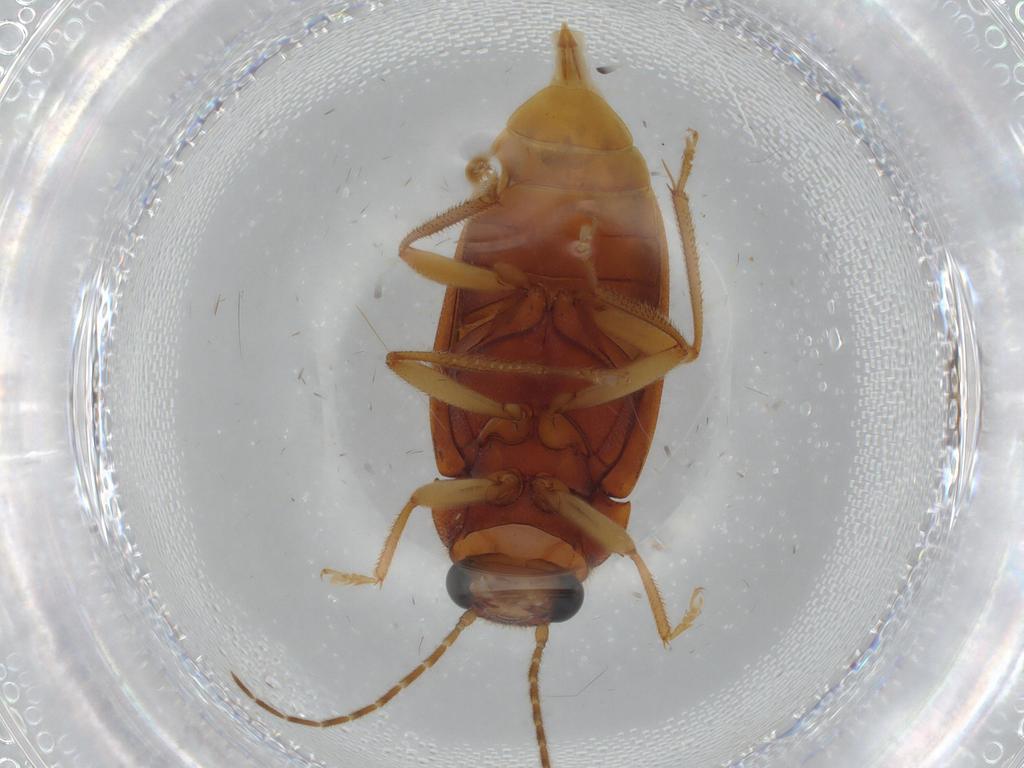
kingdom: Animalia
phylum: Arthropoda
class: Insecta
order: Coleoptera
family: Ptilodactylidae
